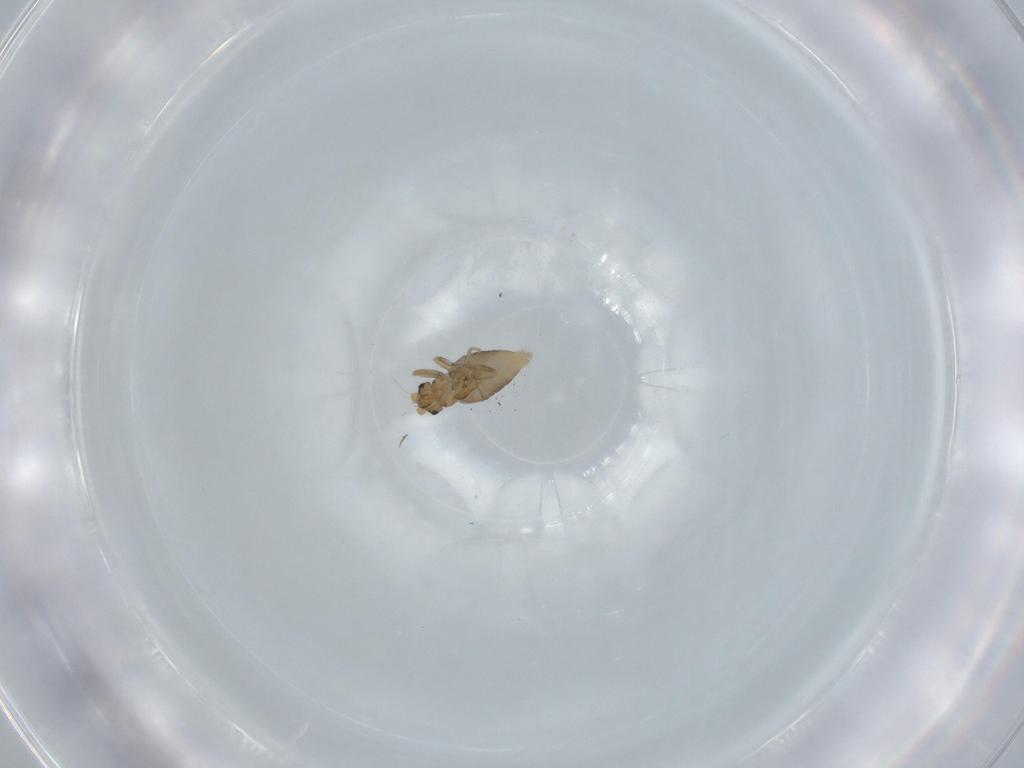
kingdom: Animalia
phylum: Arthropoda
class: Insecta
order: Diptera
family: Phoridae
